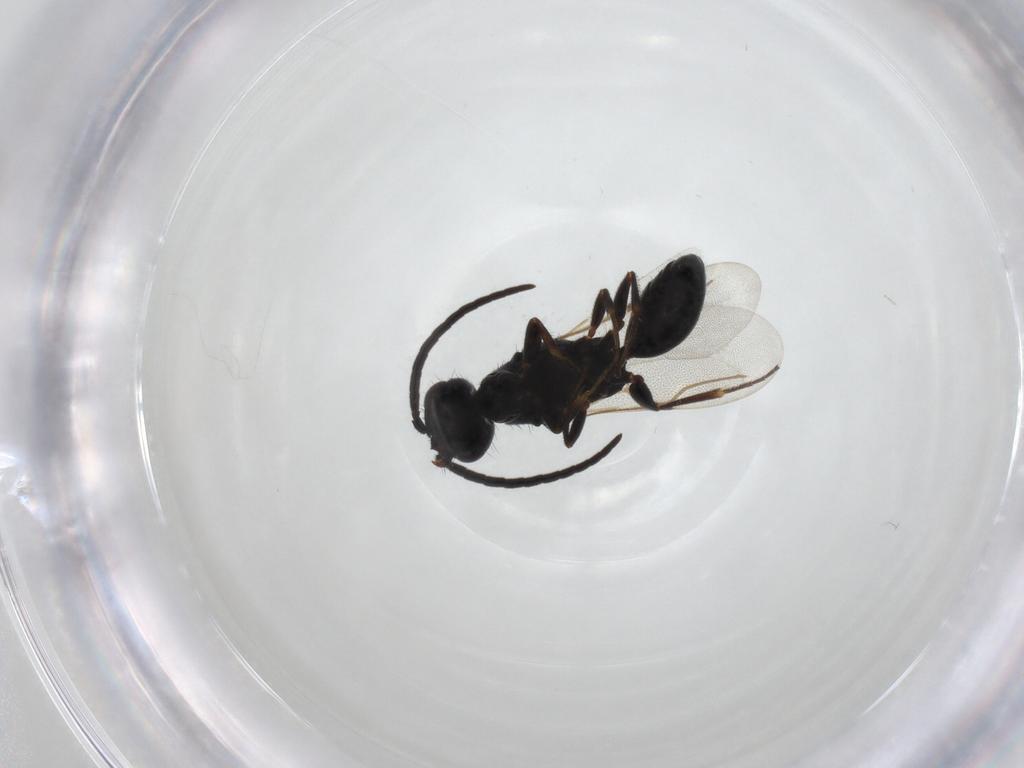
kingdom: Animalia
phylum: Arthropoda
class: Insecta
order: Hymenoptera
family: Bethylidae
